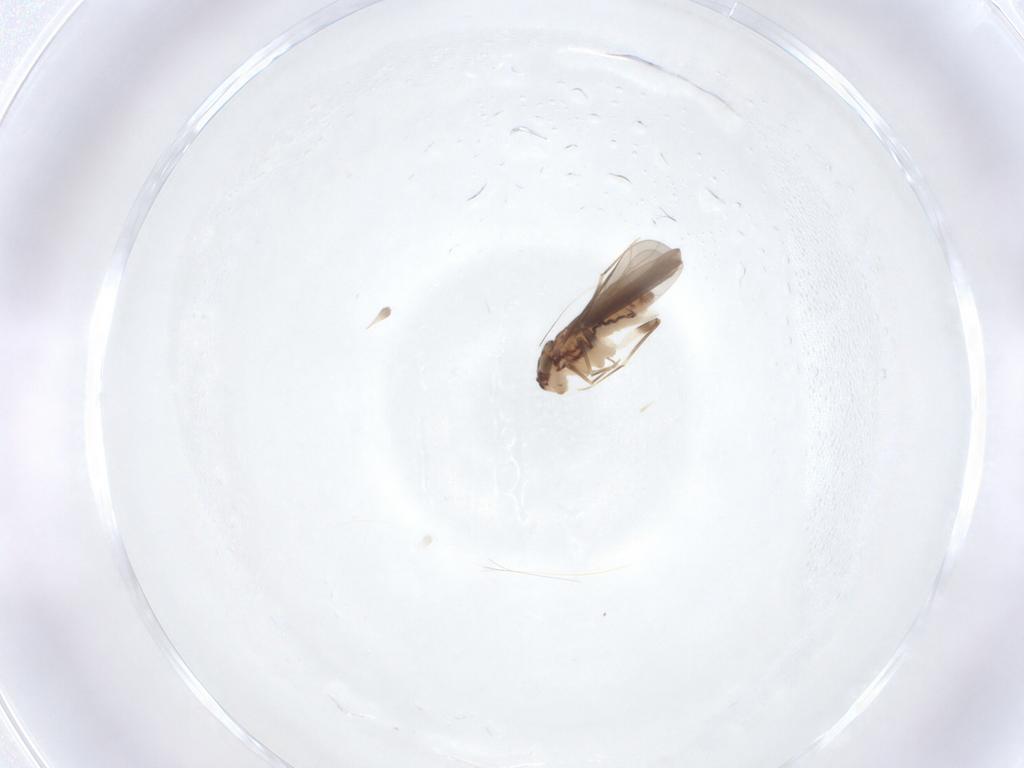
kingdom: Animalia
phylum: Arthropoda
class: Insecta
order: Psocodea
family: Lepidopsocidae
